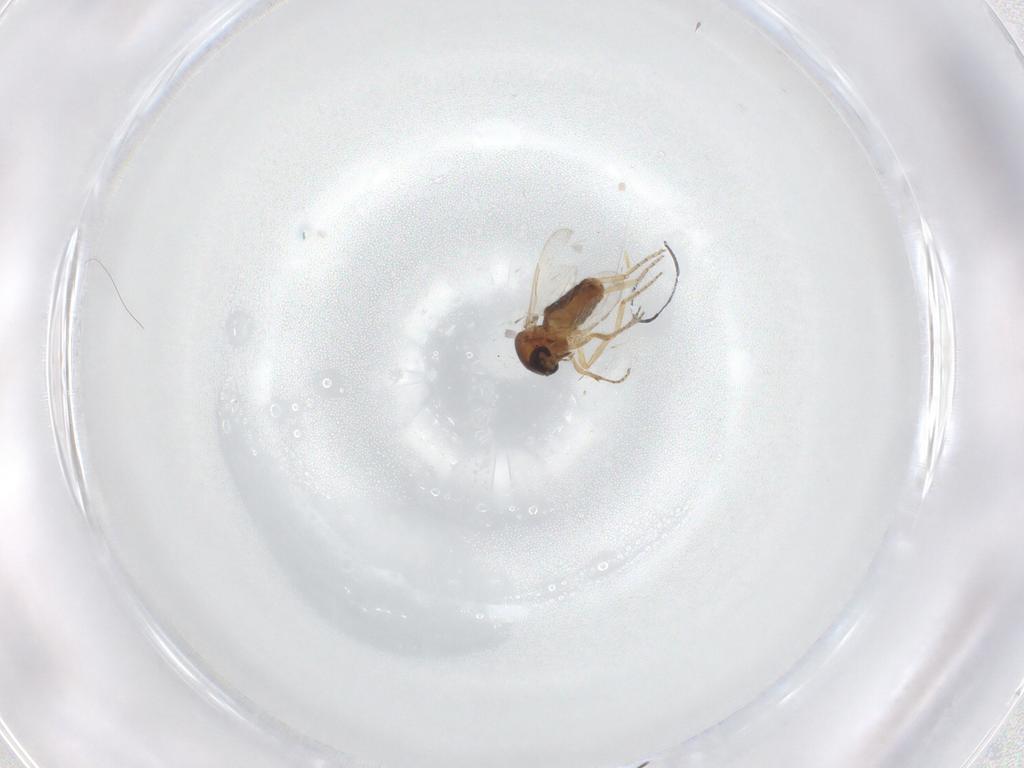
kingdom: Animalia
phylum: Arthropoda
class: Insecta
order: Diptera
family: Ceratopogonidae
